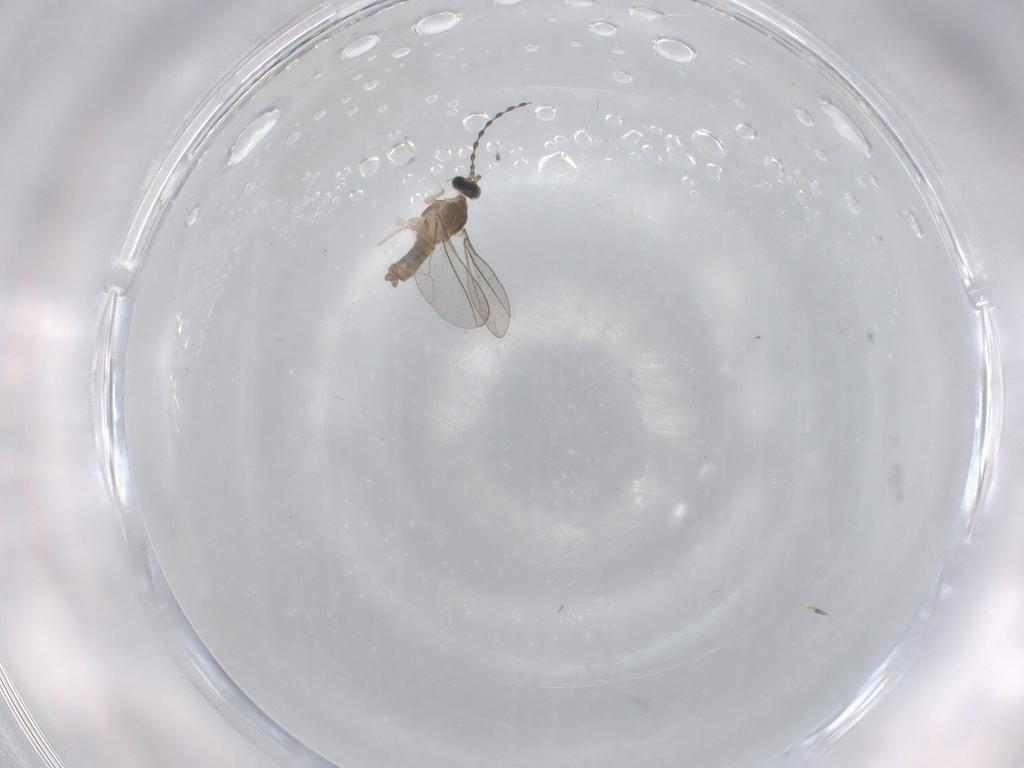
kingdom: Animalia
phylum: Arthropoda
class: Insecta
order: Diptera
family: Cecidomyiidae
